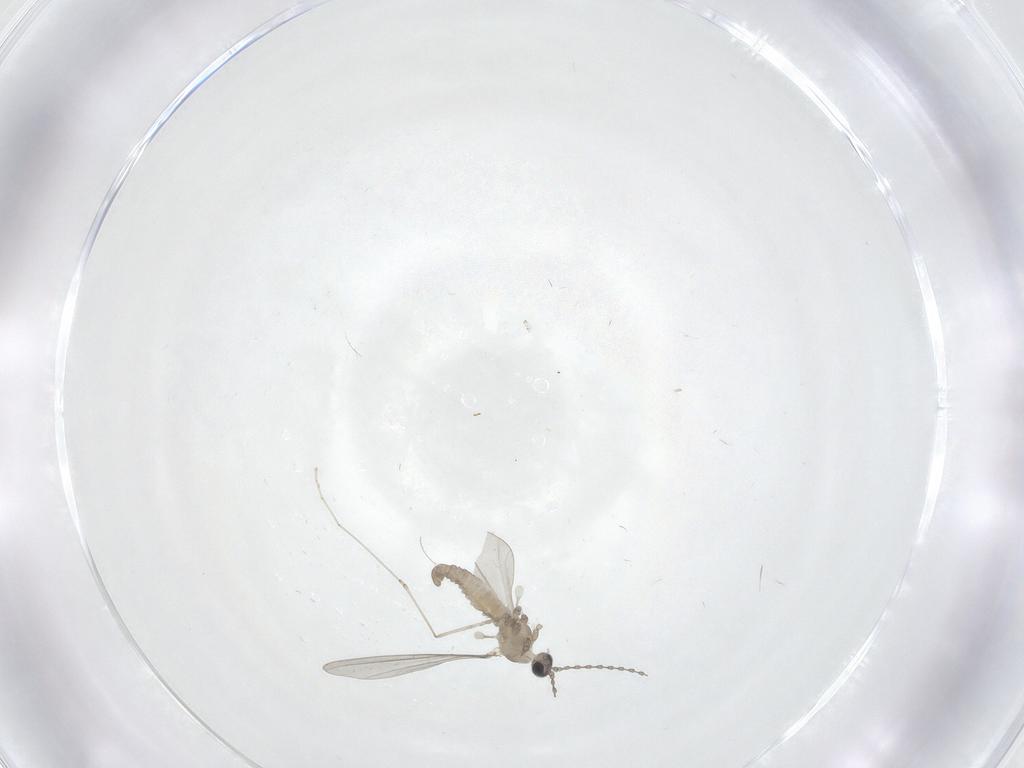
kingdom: Animalia
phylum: Arthropoda
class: Insecta
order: Diptera
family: Cecidomyiidae
